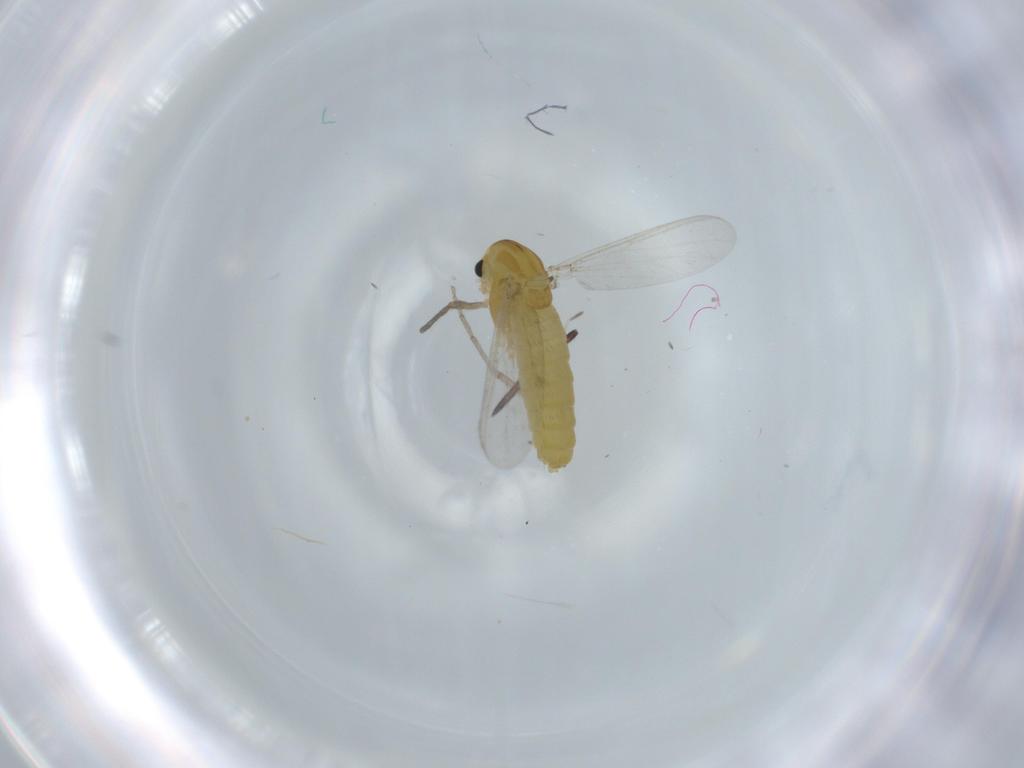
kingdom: Animalia
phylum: Arthropoda
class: Insecta
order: Diptera
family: Chironomidae
